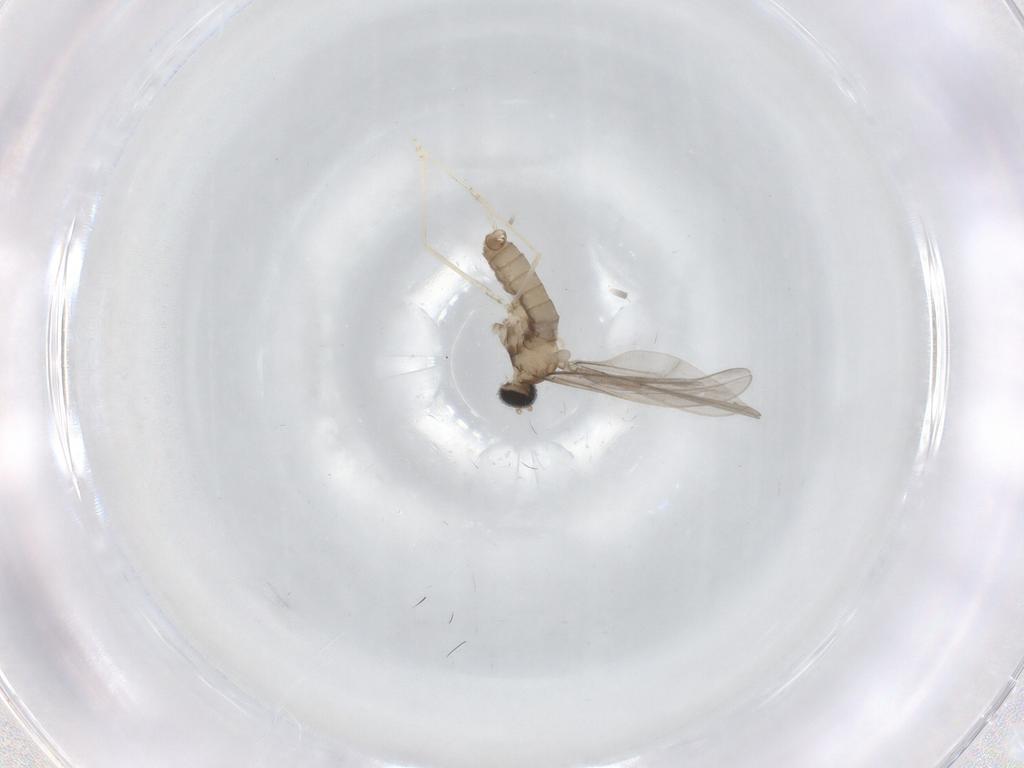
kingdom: Animalia
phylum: Arthropoda
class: Insecta
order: Diptera
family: Cecidomyiidae
